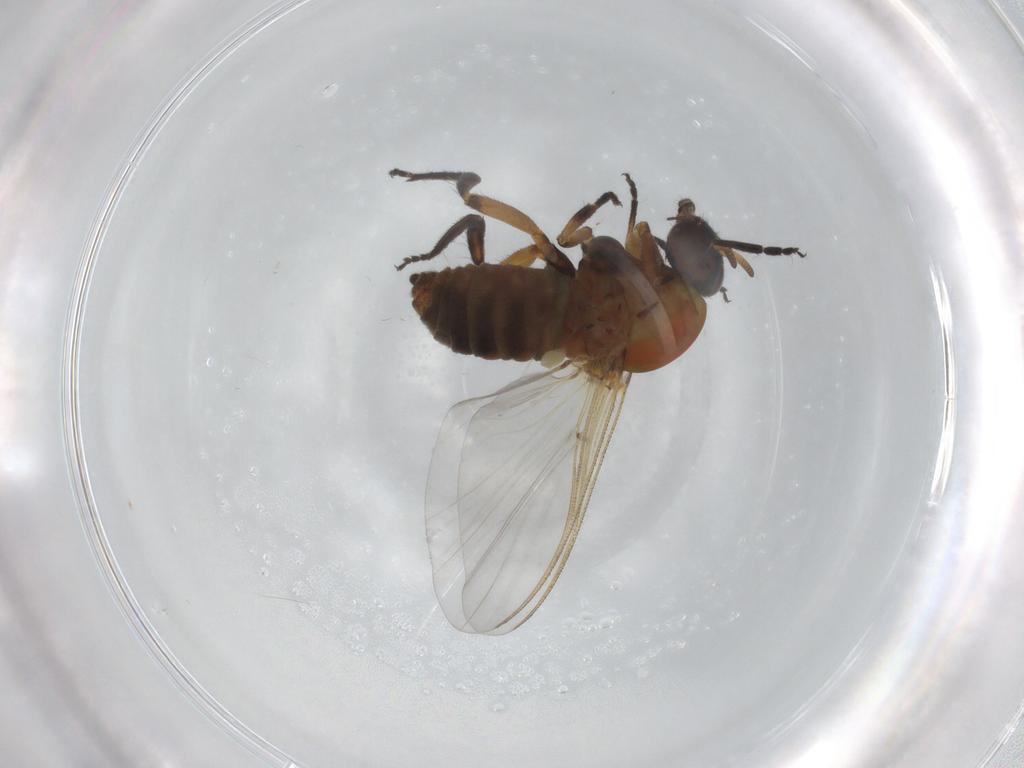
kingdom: Animalia
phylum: Arthropoda
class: Insecta
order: Diptera
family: Simuliidae
